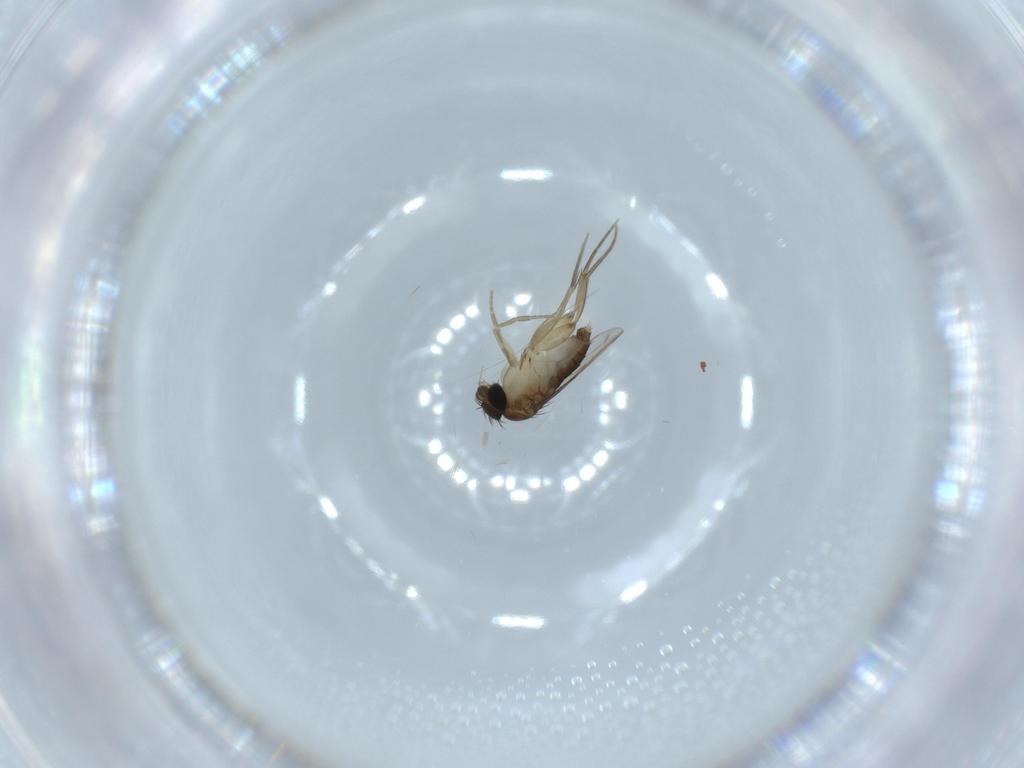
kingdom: Animalia
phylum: Arthropoda
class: Insecta
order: Diptera
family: Phoridae
